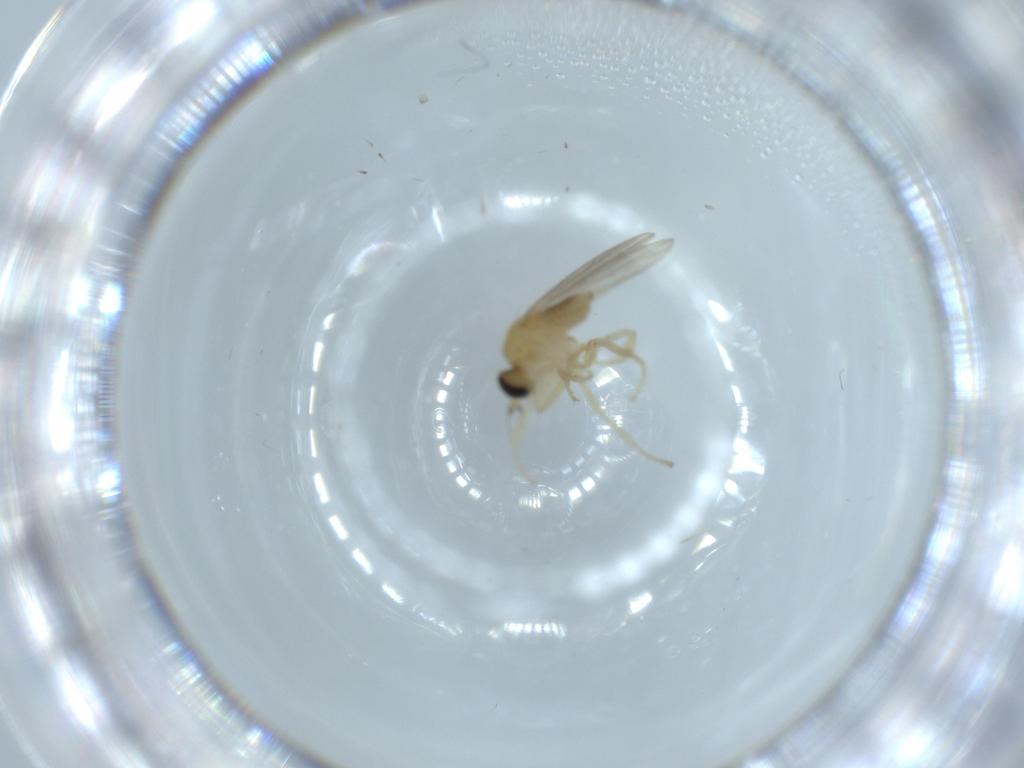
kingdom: Animalia
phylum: Arthropoda
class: Insecta
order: Diptera
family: Hybotidae
